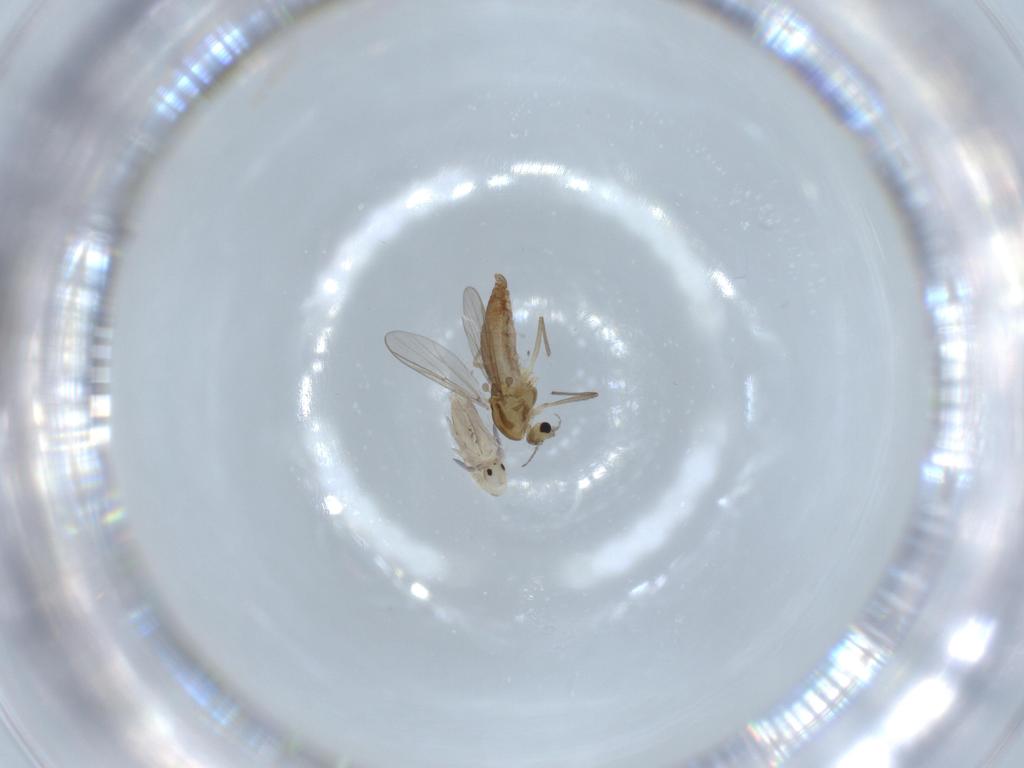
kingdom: Animalia
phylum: Arthropoda
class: Insecta
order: Diptera
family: Chironomidae
